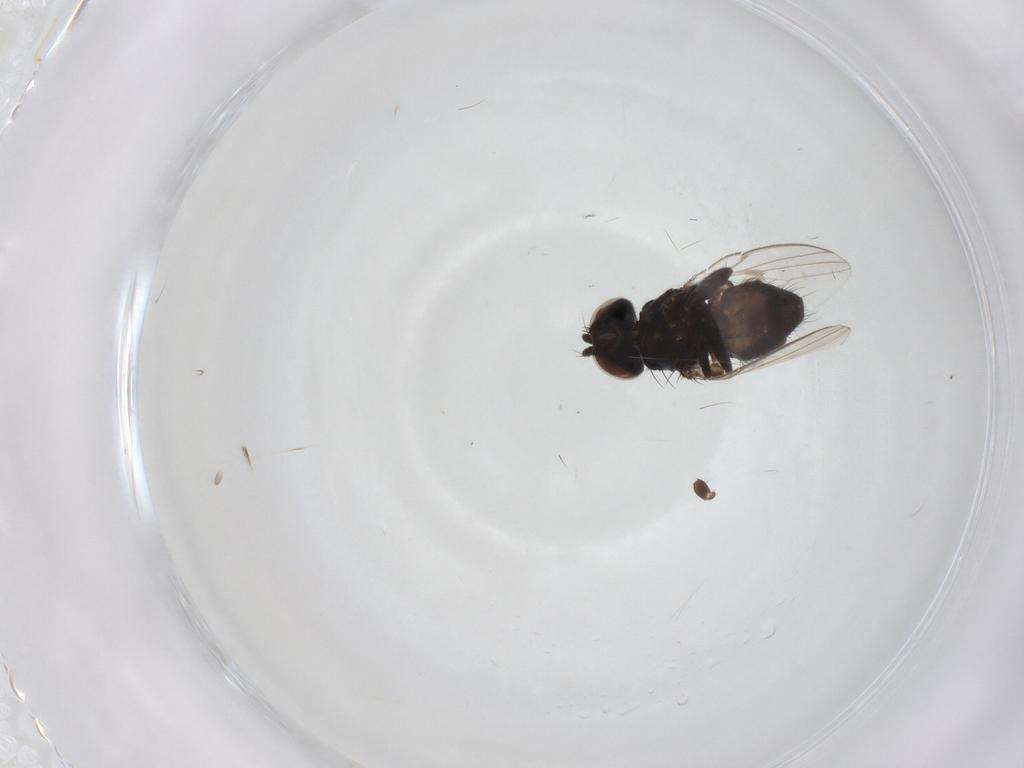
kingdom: Animalia
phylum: Arthropoda
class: Insecta
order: Diptera
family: Milichiidae
